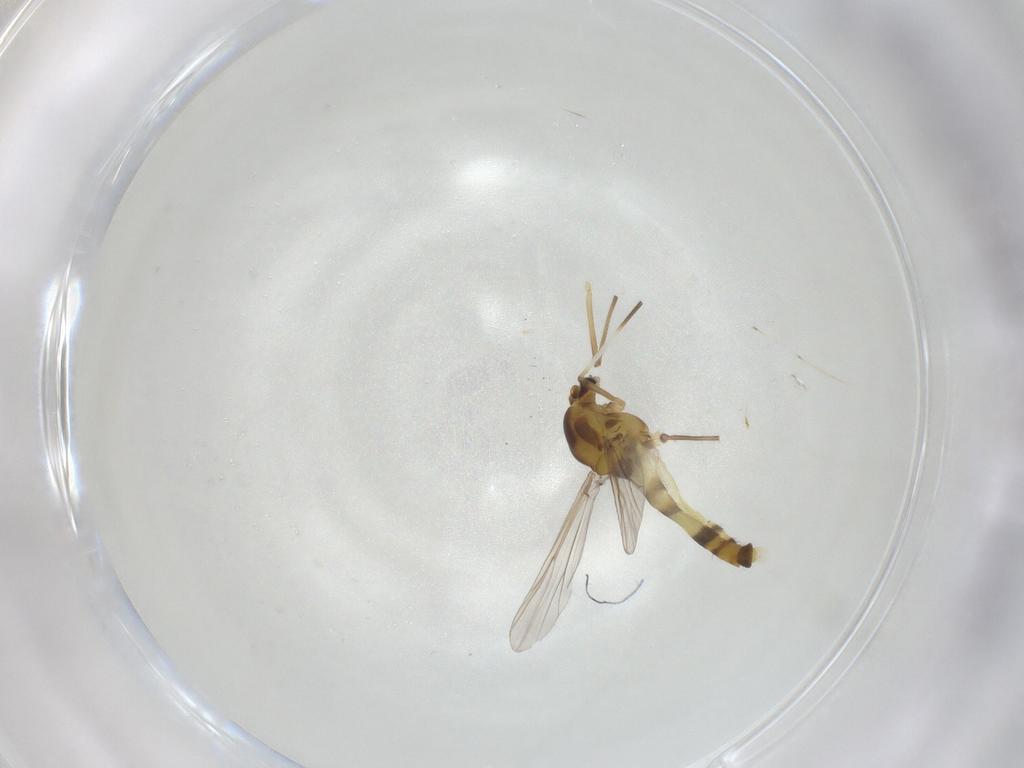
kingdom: Animalia
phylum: Arthropoda
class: Insecta
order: Diptera
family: Chironomidae
